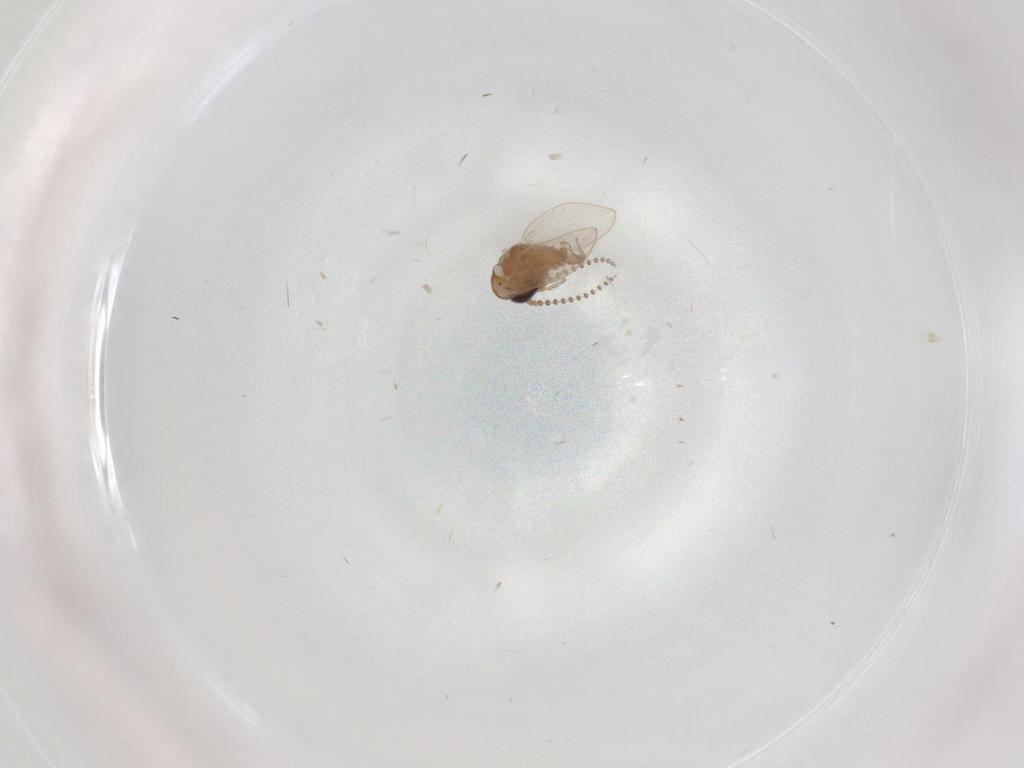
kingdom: Animalia
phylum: Arthropoda
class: Insecta
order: Diptera
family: Psychodidae
